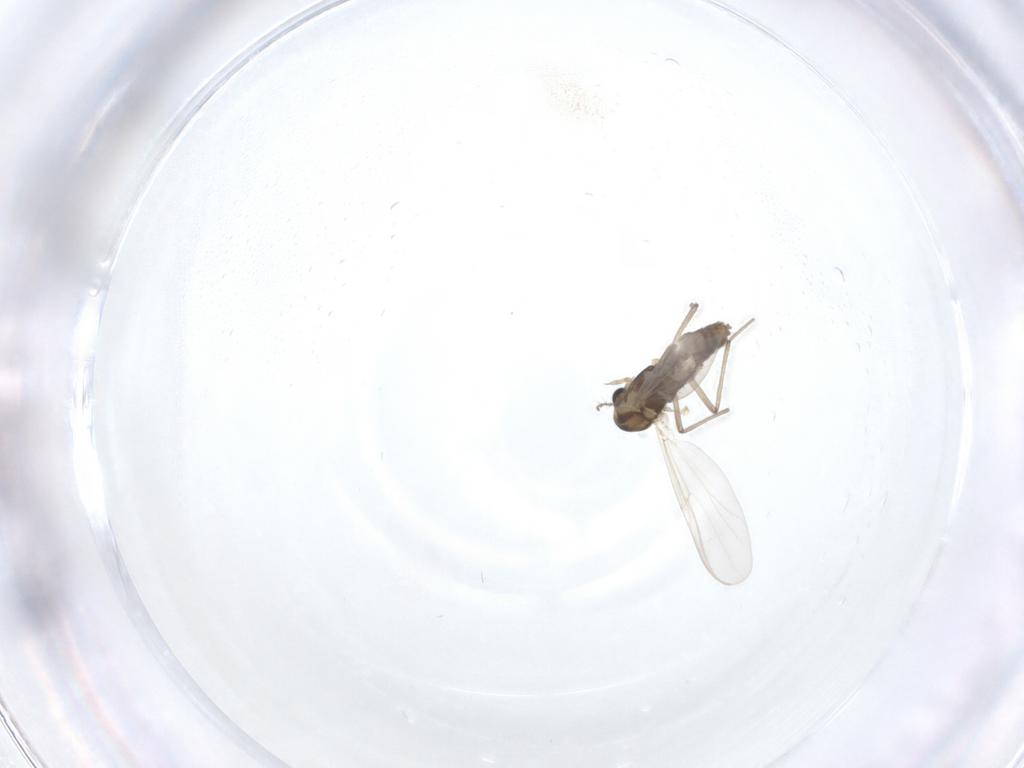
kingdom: Animalia
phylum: Arthropoda
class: Insecta
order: Diptera
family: Chironomidae
